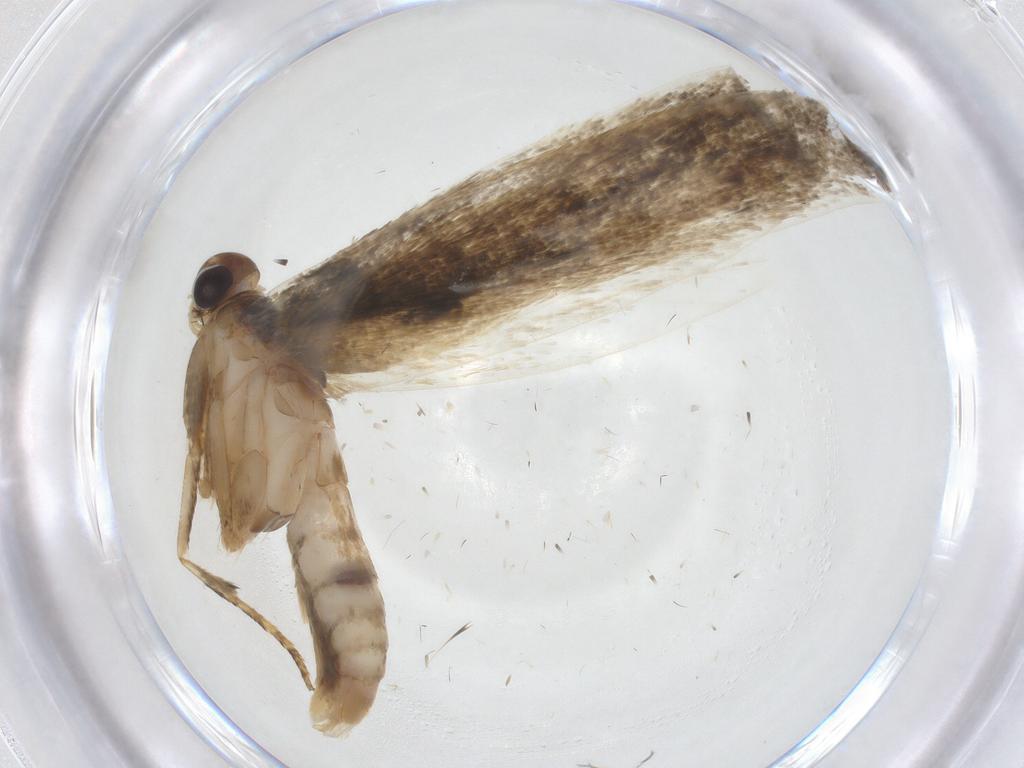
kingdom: Animalia
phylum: Arthropoda
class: Insecta
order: Lepidoptera
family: Gelechiidae
